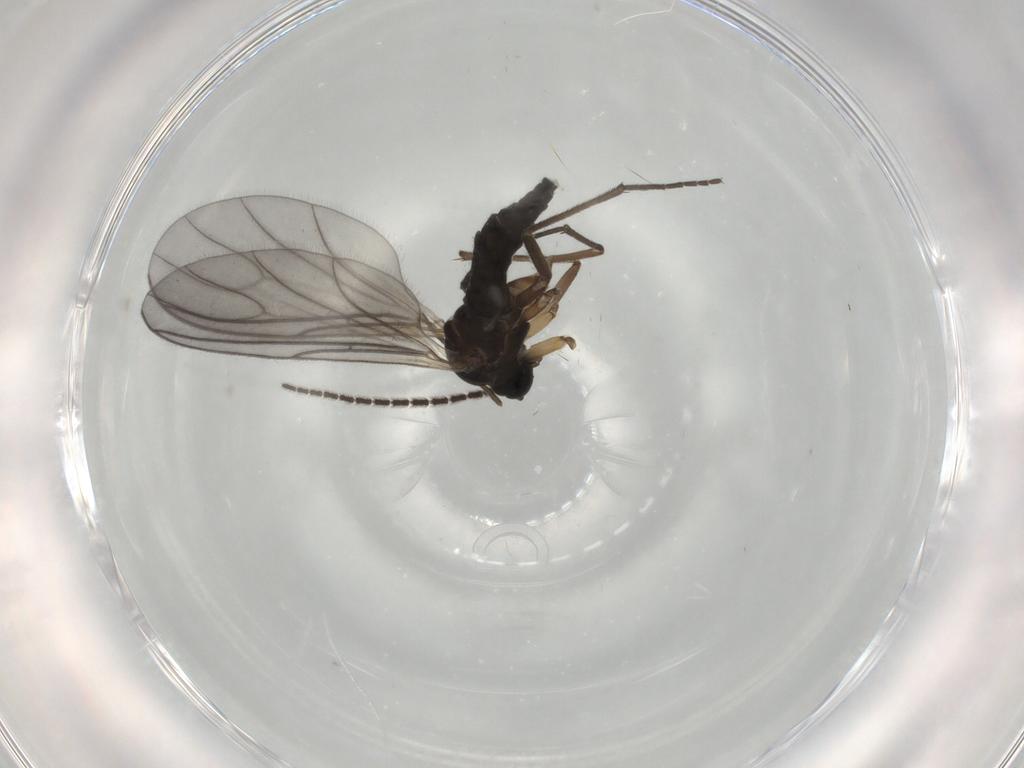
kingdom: Animalia
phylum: Arthropoda
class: Insecta
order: Diptera
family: Sciaridae
